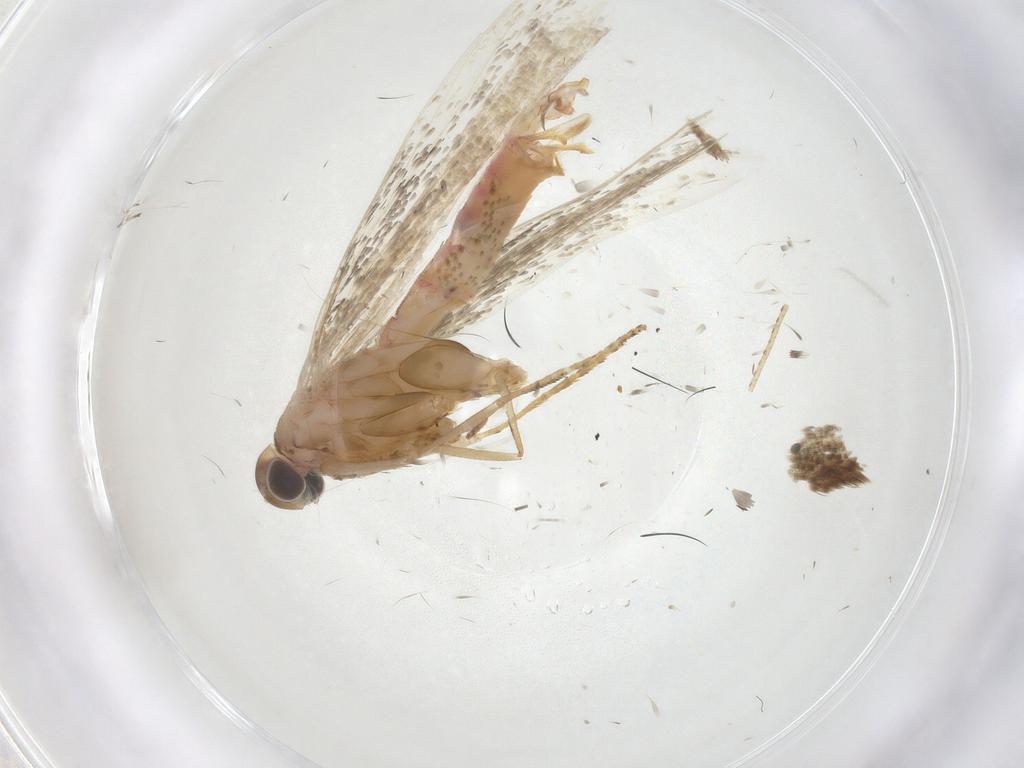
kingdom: Animalia
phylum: Arthropoda
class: Insecta
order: Lepidoptera
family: Crambidae
